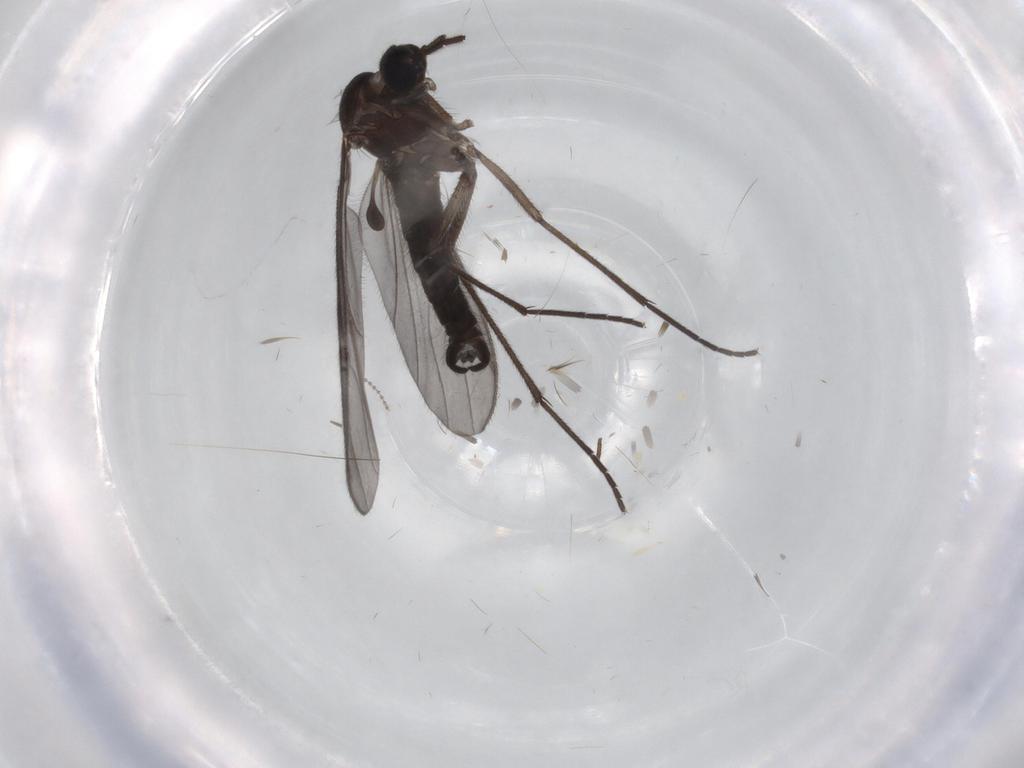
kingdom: Animalia
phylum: Arthropoda
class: Insecta
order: Diptera
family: Sciaridae
